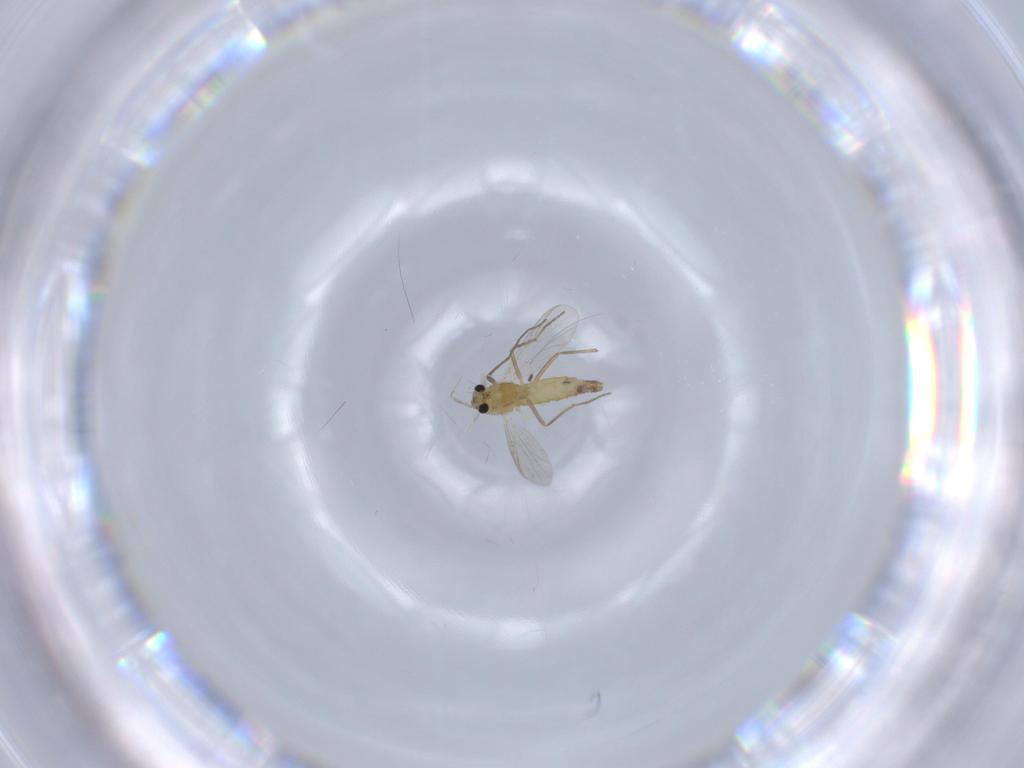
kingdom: Animalia
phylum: Arthropoda
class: Insecta
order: Diptera
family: Chironomidae
